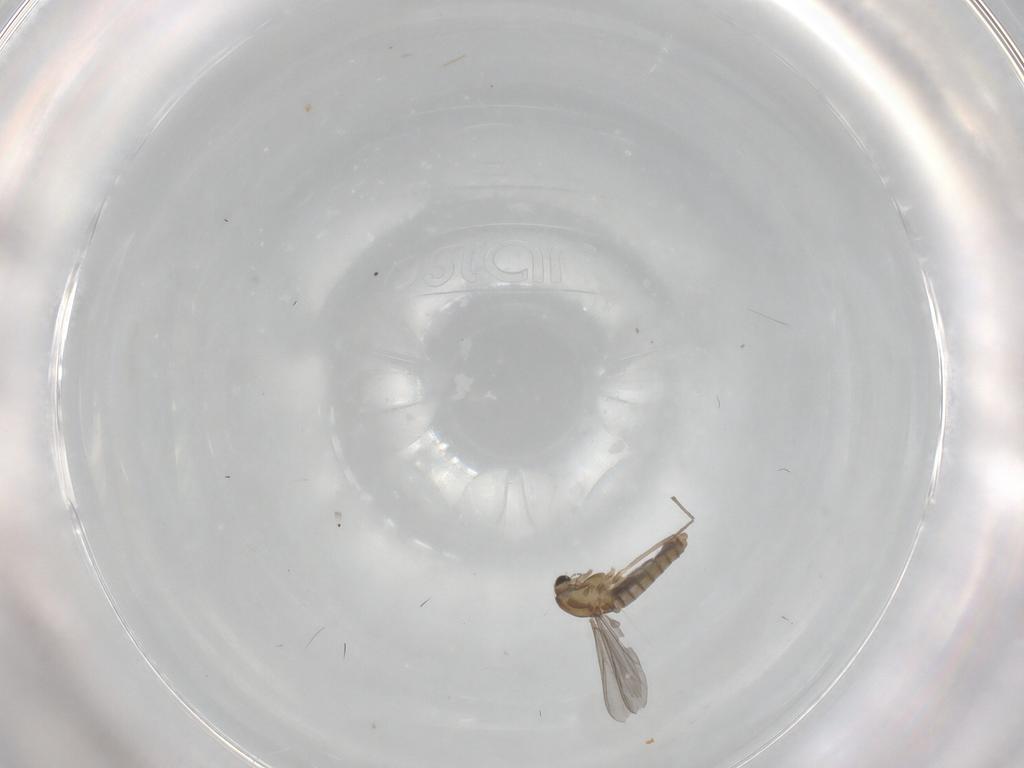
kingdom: Animalia
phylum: Arthropoda
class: Insecta
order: Diptera
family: Chironomidae
